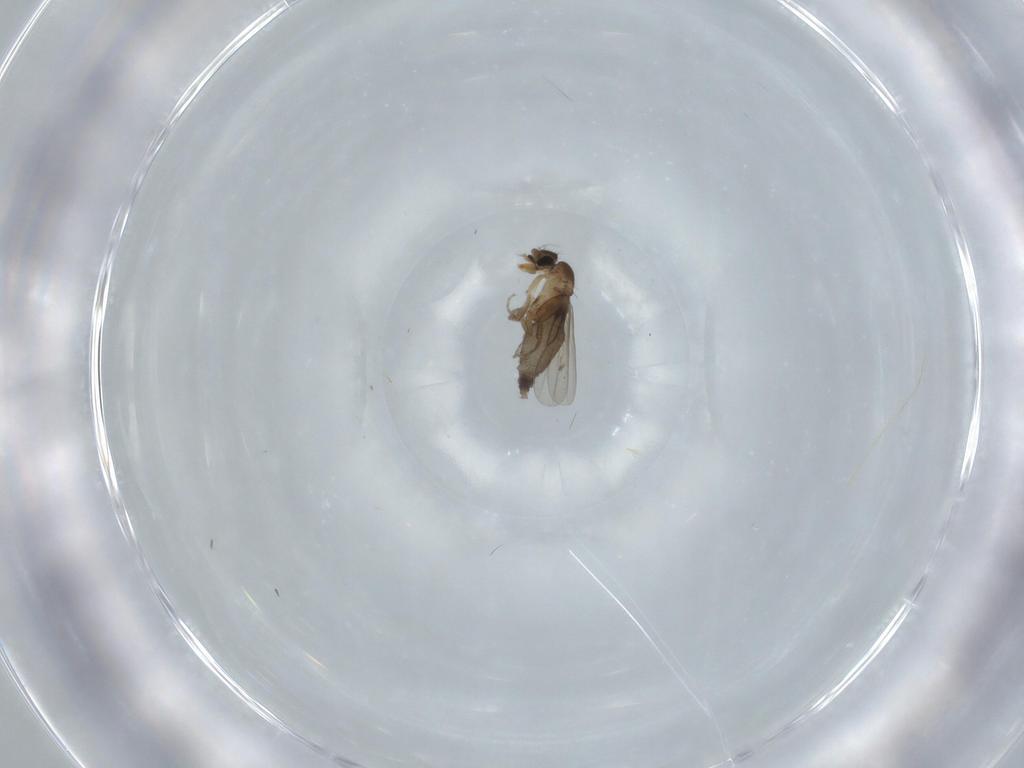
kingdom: Animalia
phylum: Arthropoda
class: Insecta
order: Diptera
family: Phoridae
